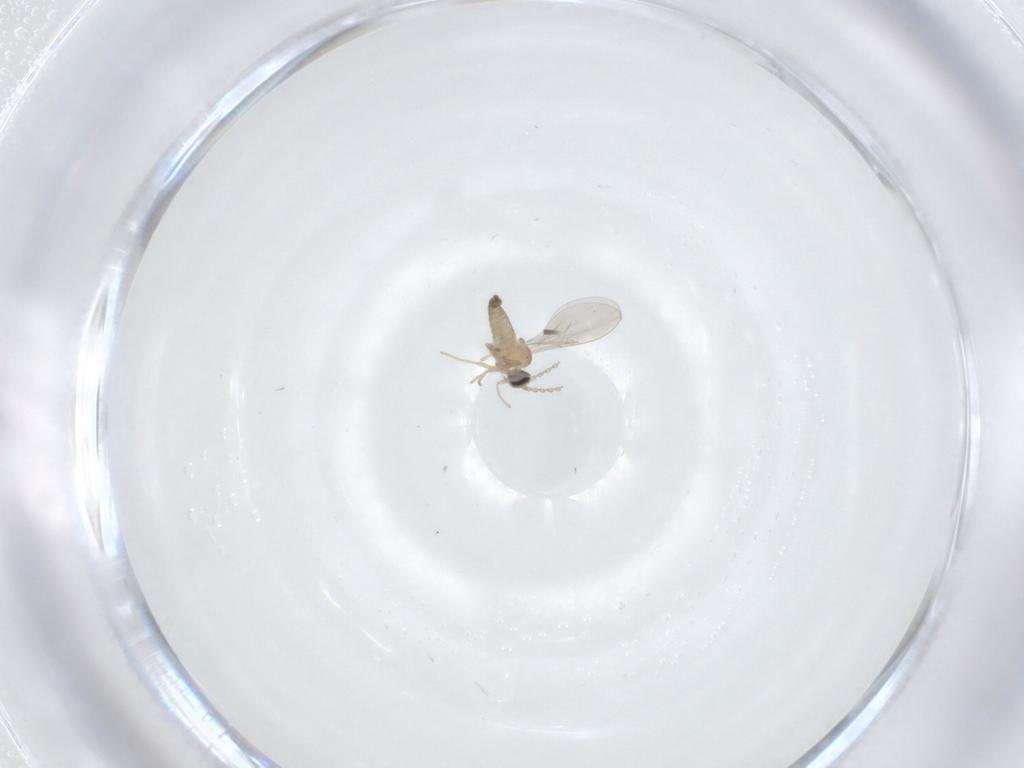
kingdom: Animalia
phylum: Arthropoda
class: Insecta
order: Diptera
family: Cecidomyiidae
